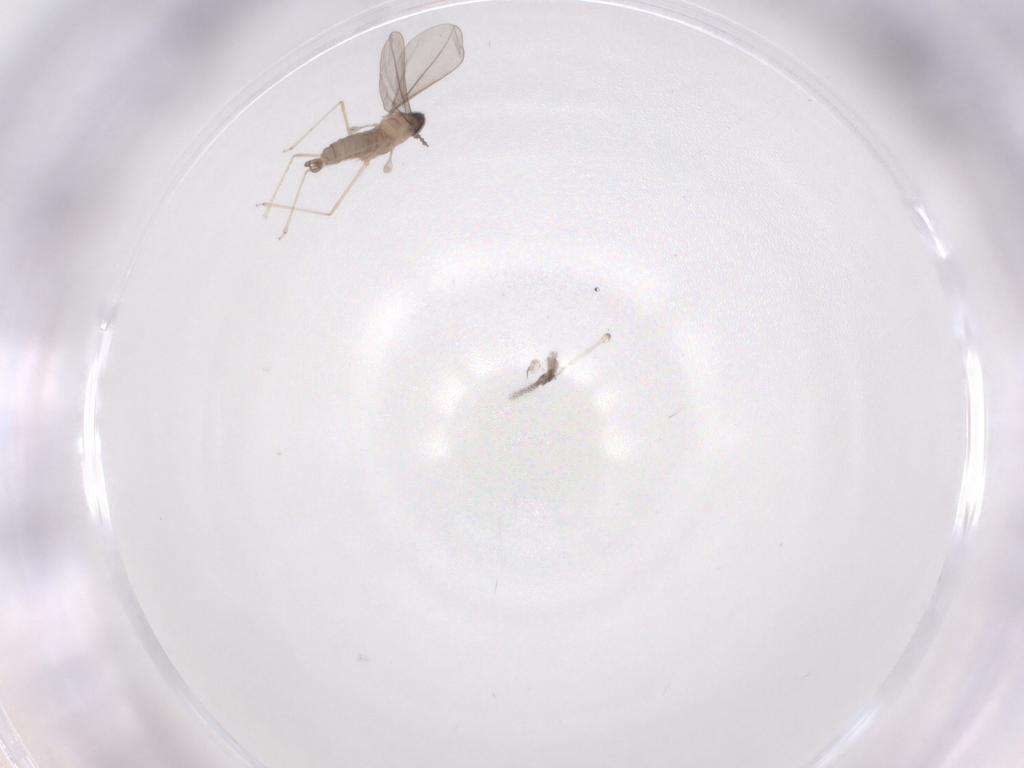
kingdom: Animalia
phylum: Arthropoda
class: Insecta
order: Diptera
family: Cecidomyiidae
